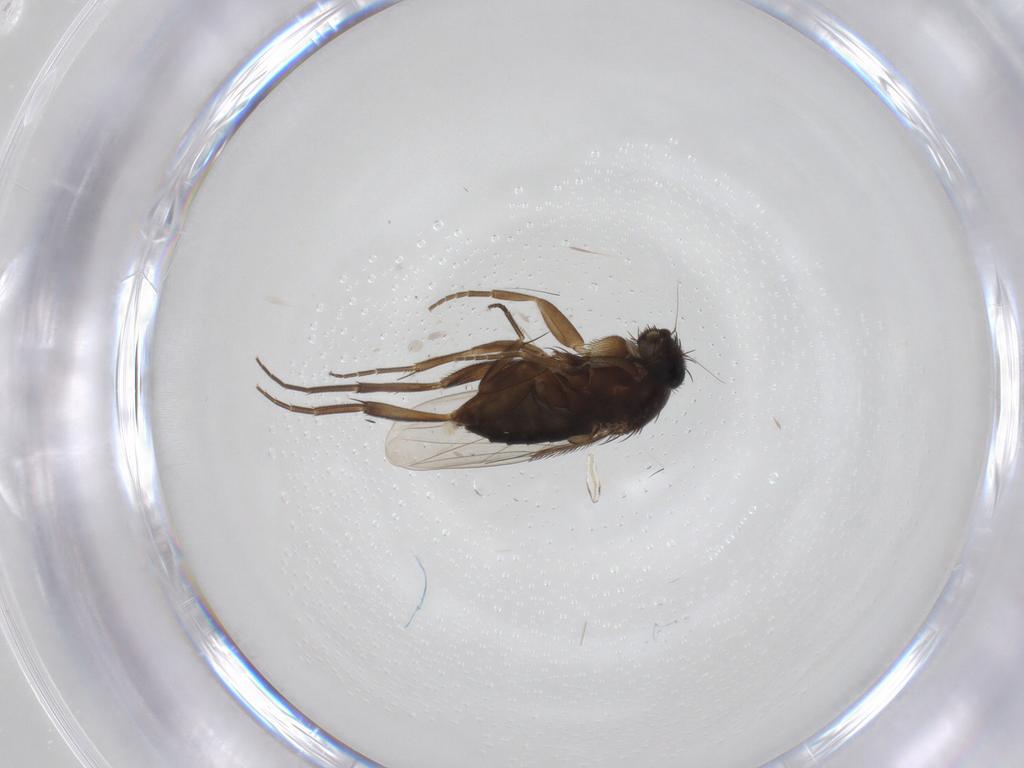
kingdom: Animalia
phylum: Arthropoda
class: Insecta
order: Diptera
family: Phoridae
